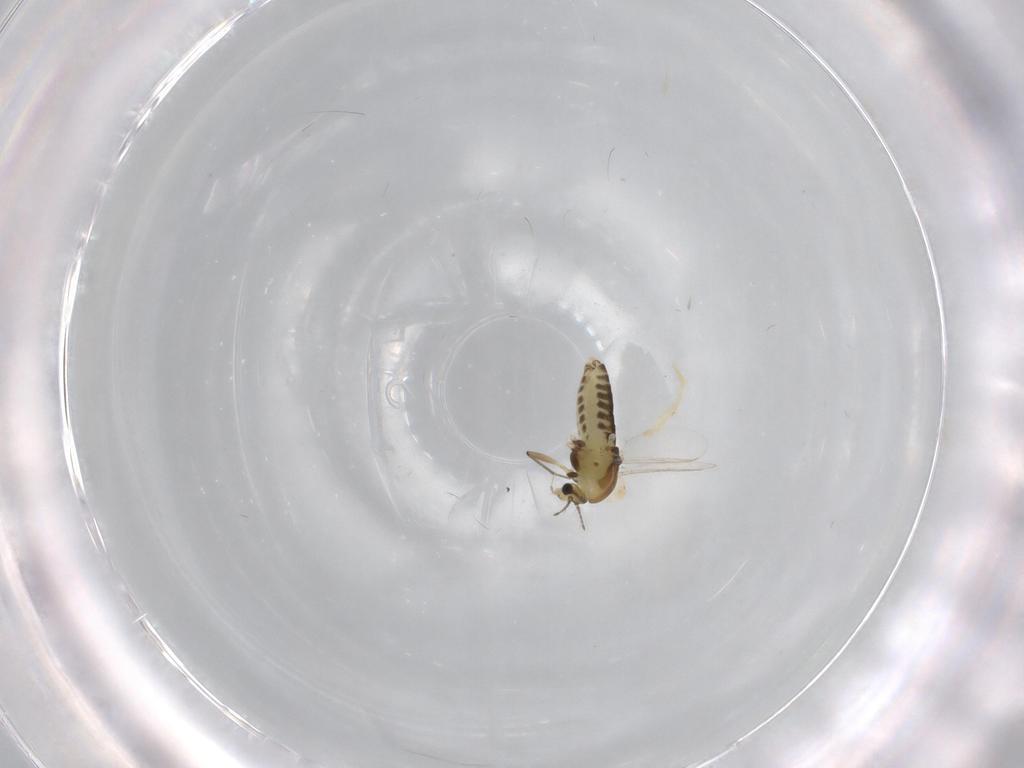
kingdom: Animalia
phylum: Arthropoda
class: Insecta
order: Diptera
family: Chironomidae
